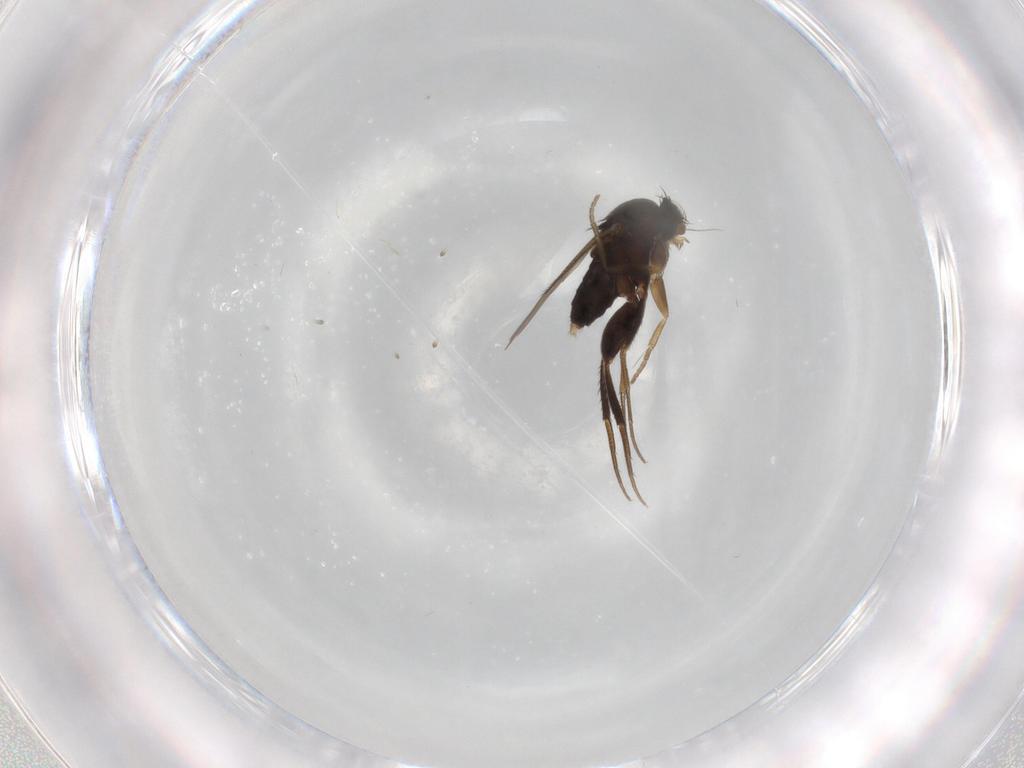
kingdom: Animalia
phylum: Arthropoda
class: Insecta
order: Diptera
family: Phoridae
